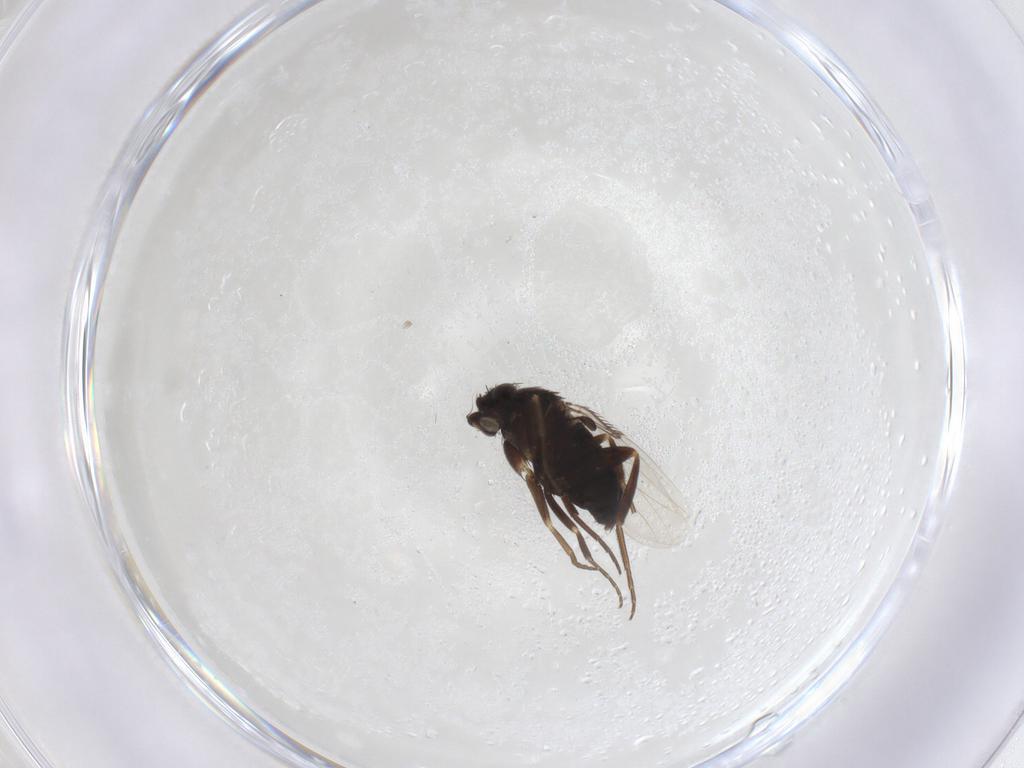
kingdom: Animalia
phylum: Arthropoda
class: Insecta
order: Diptera
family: Phoridae
